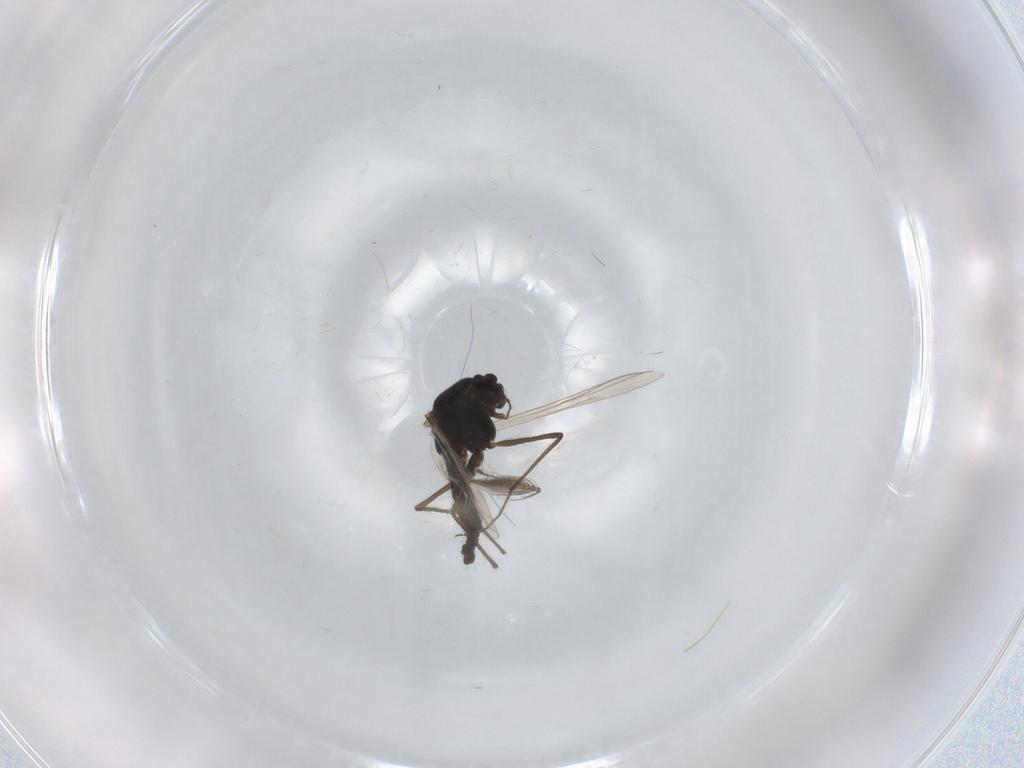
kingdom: Animalia
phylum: Arthropoda
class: Insecta
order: Diptera
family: Chironomidae
